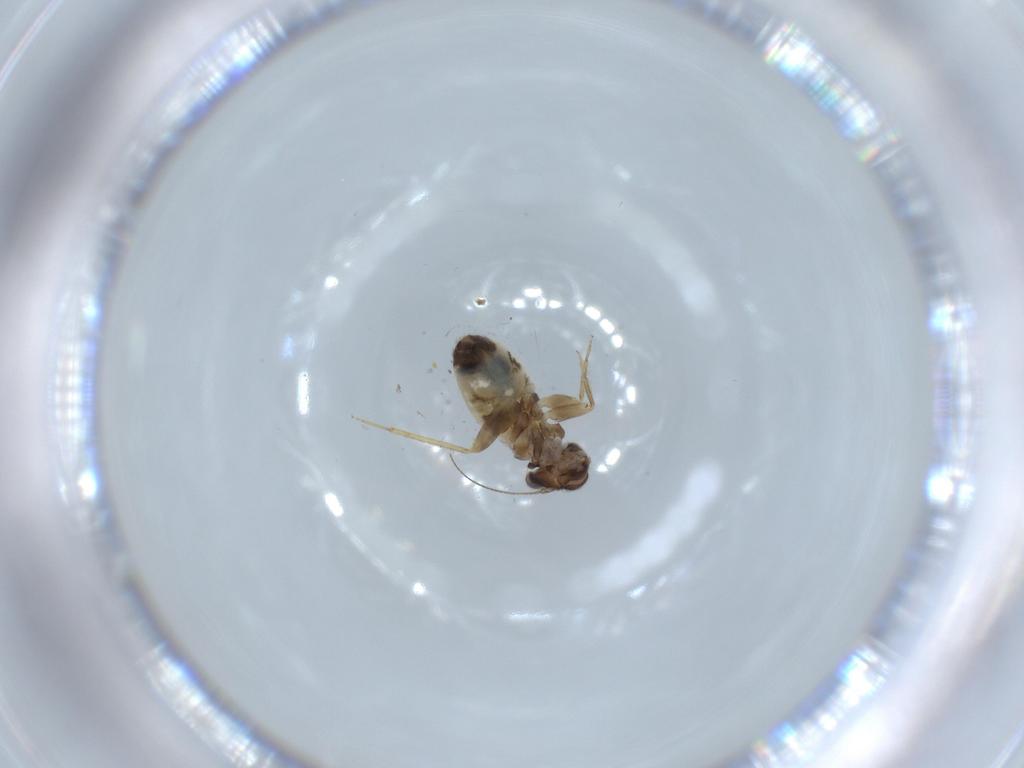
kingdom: Animalia
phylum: Arthropoda
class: Insecta
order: Psocodea
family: Lepidopsocidae
